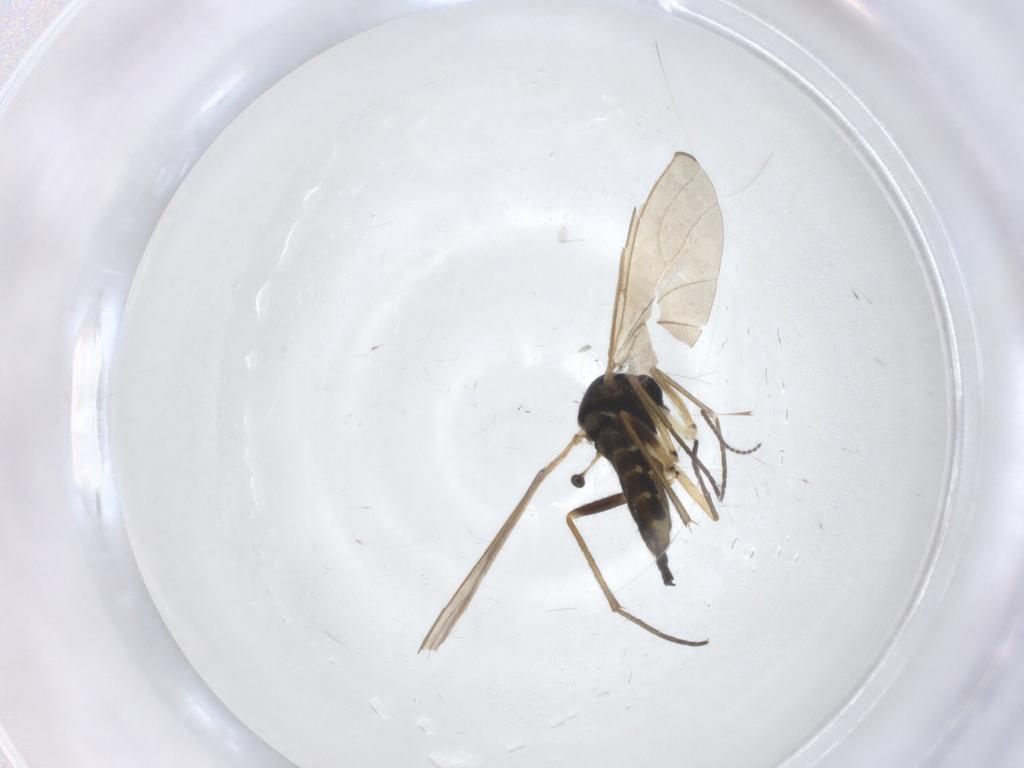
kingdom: Animalia
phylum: Arthropoda
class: Insecta
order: Diptera
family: Sciaridae
